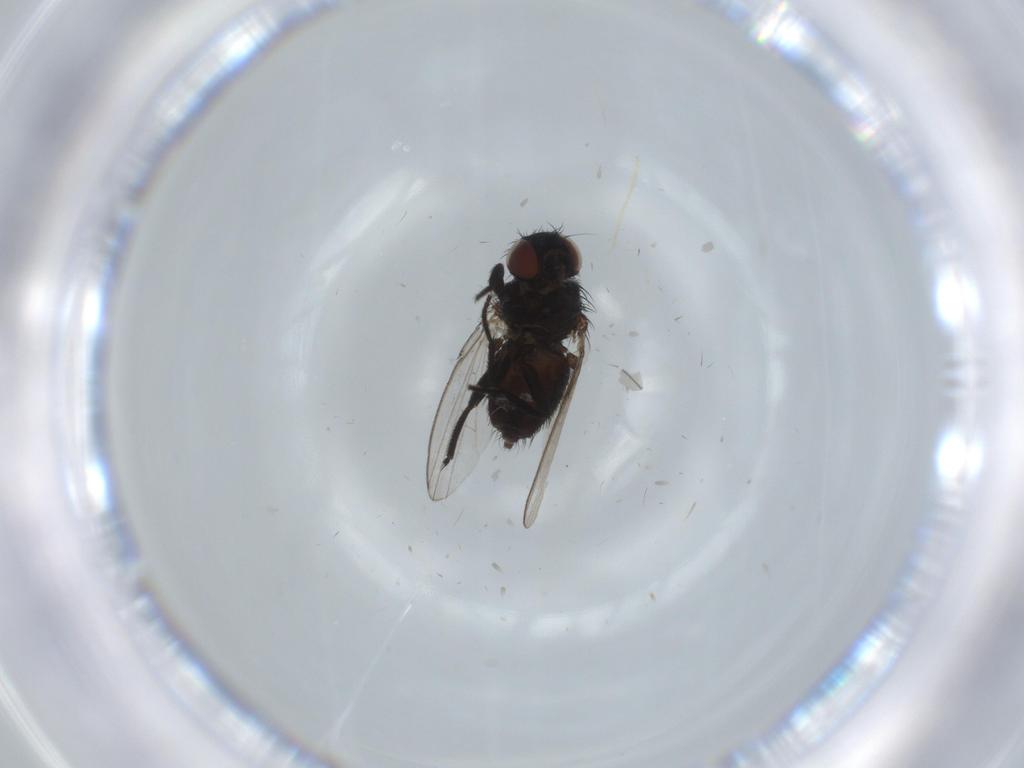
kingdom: Animalia
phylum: Arthropoda
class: Insecta
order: Diptera
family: Milichiidae
